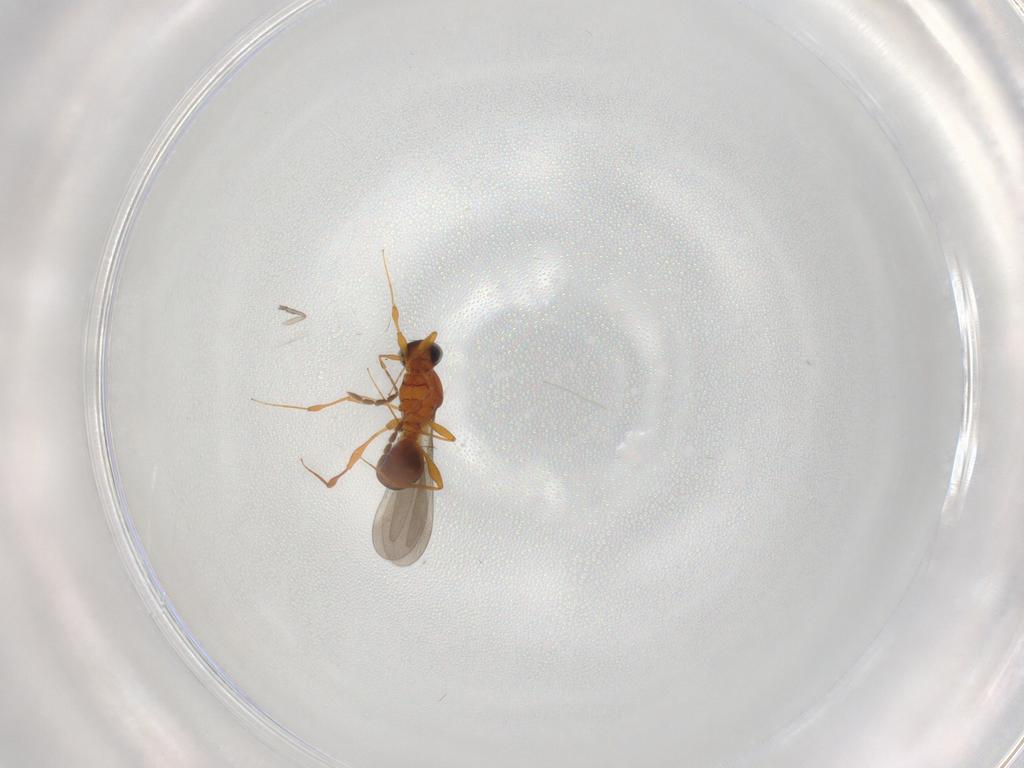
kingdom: Animalia
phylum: Arthropoda
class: Insecta
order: Hymenoptera
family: Platygastridae
